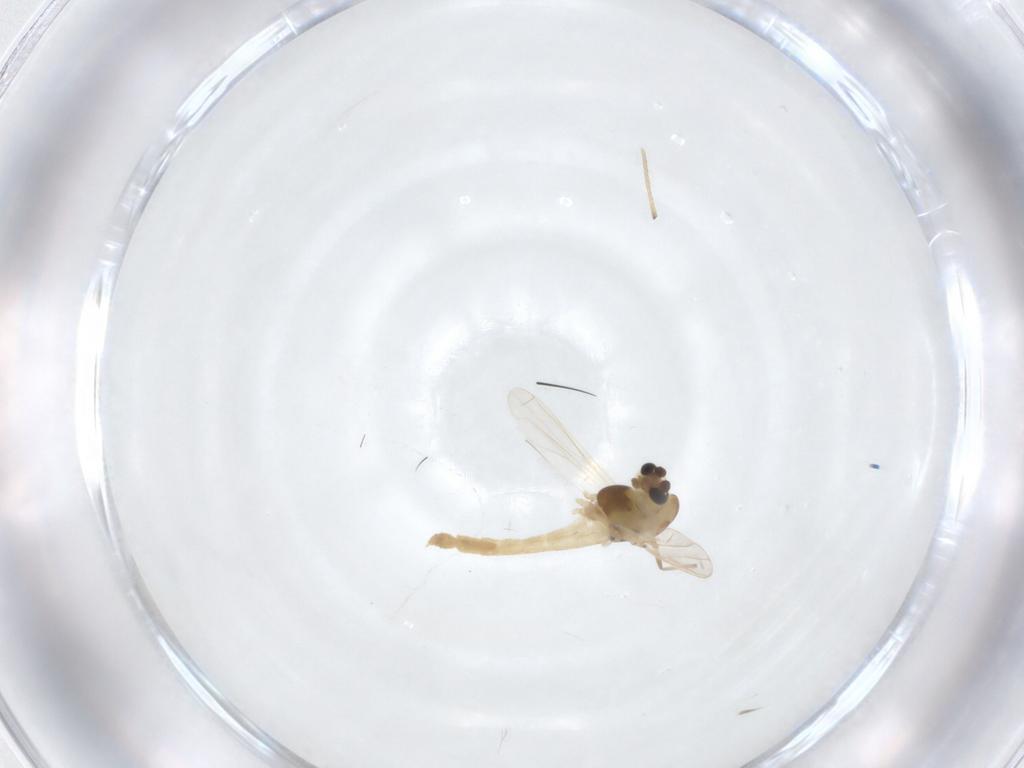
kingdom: Animalia
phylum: Arthropoda
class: Insecta
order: Diptera
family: Chironomidae
